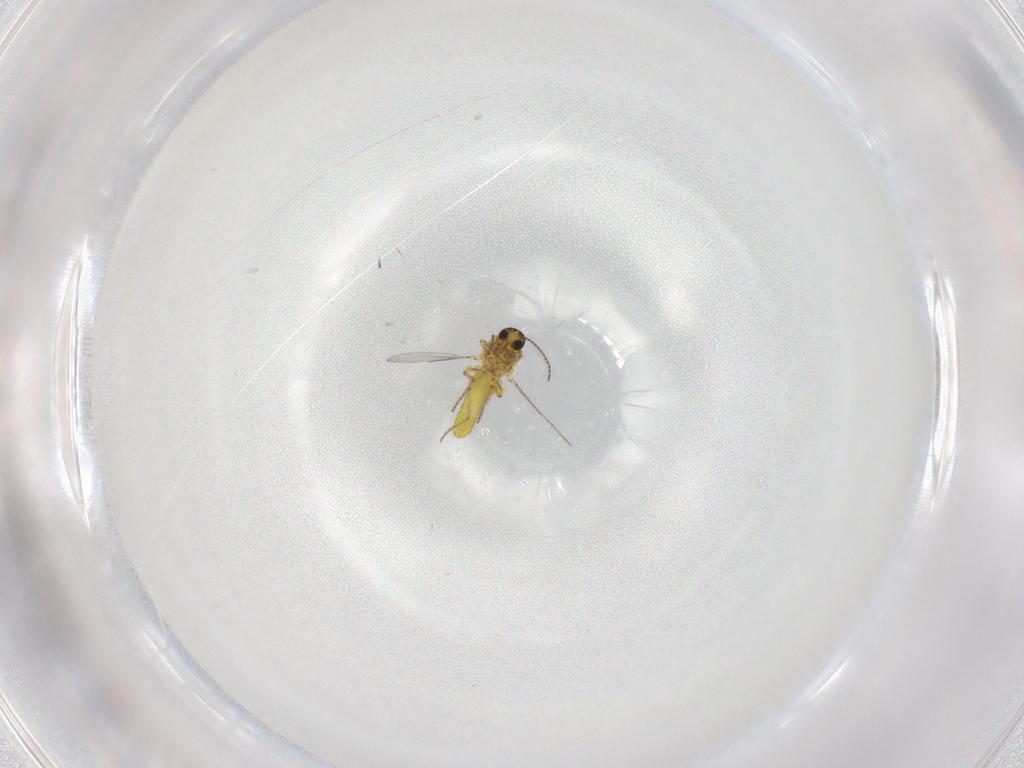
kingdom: Animalia
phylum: Arthropoda
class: Insecta
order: Diptera
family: Ceratopogonidae
